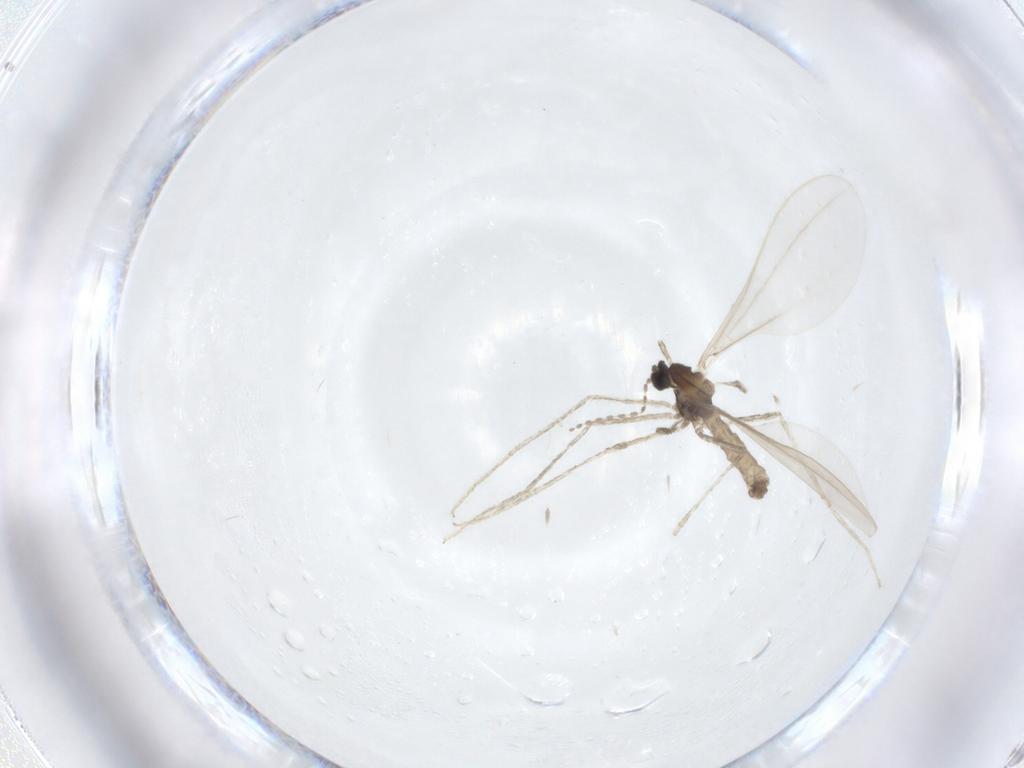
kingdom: Animalia
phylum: Arthropoda
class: Insecta
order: Diptera
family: Cecidomyiidae
